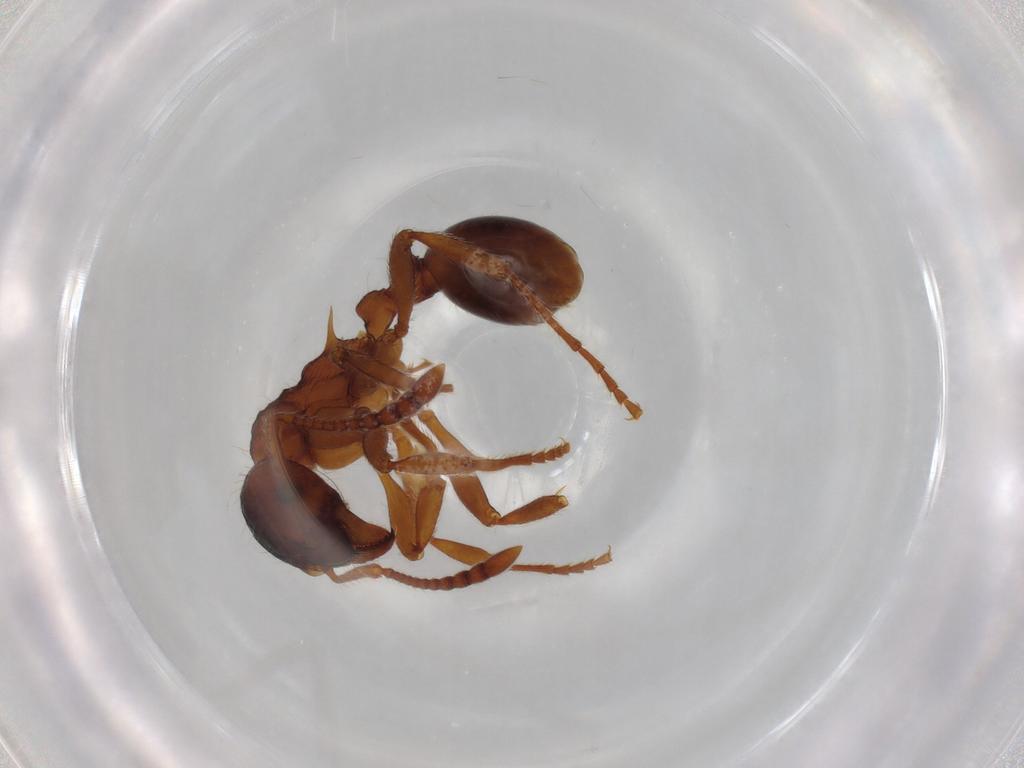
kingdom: Animalia
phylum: Arthropoda
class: Insecta
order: Hymenoptera
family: Formicidae
